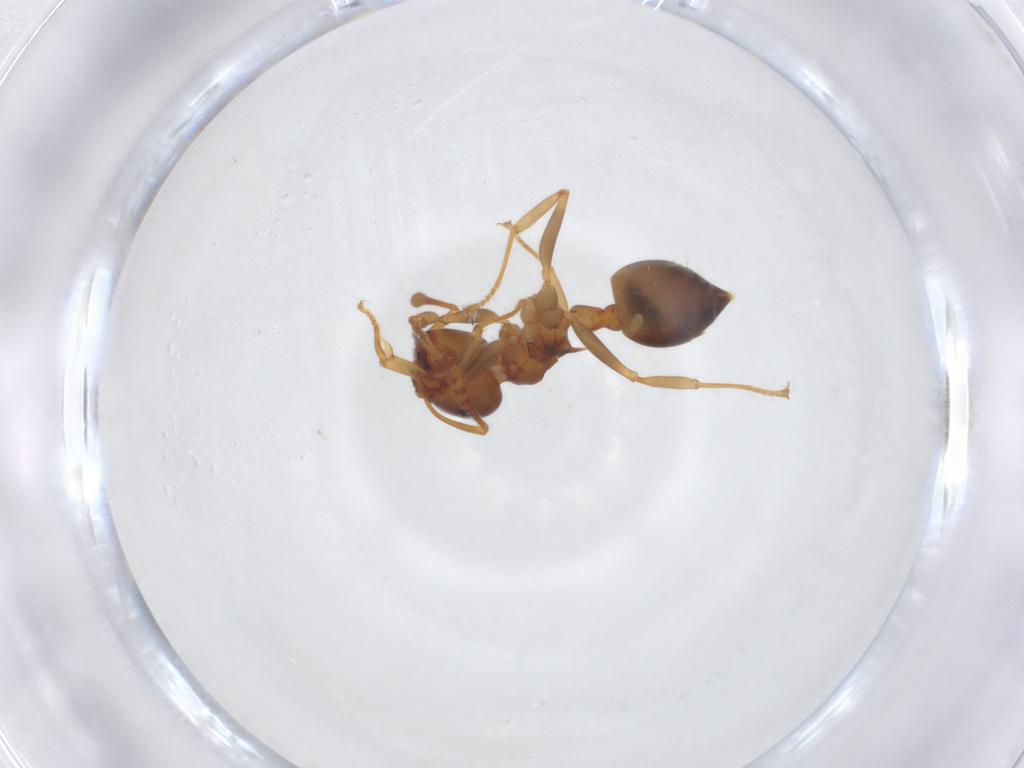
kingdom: Animalia
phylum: Arthropoda
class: Insecta
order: Hymenoptera
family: Formicidae
